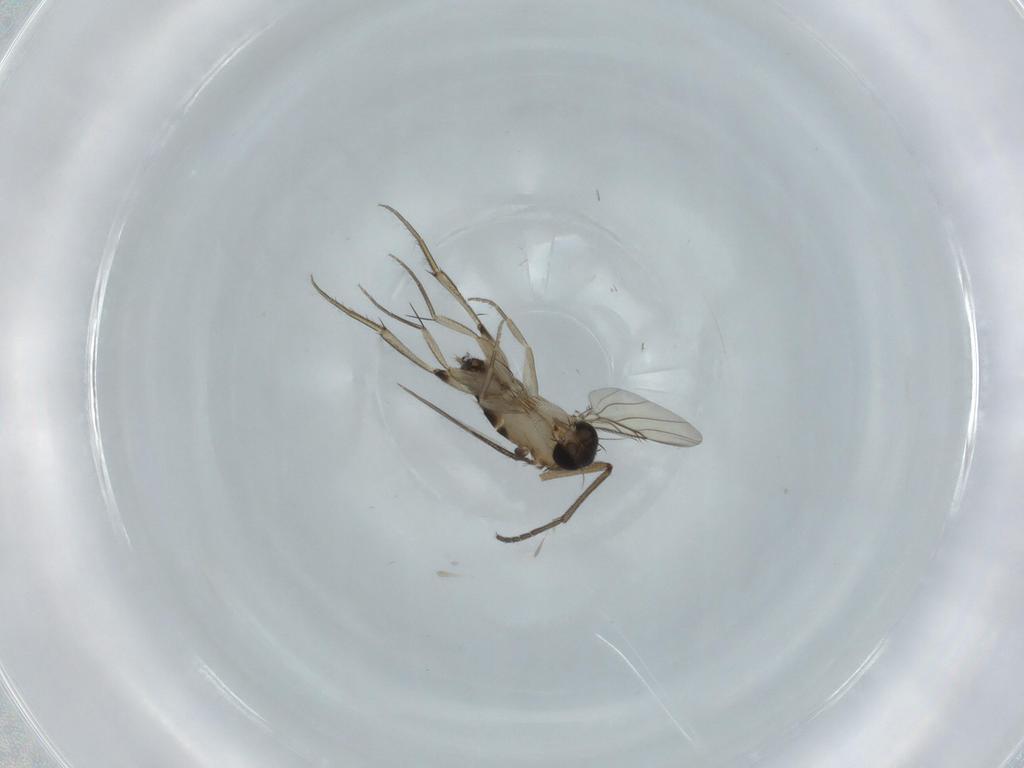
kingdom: Animalia
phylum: Arthropoda
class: Insecta
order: Diptera
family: Phoridae
